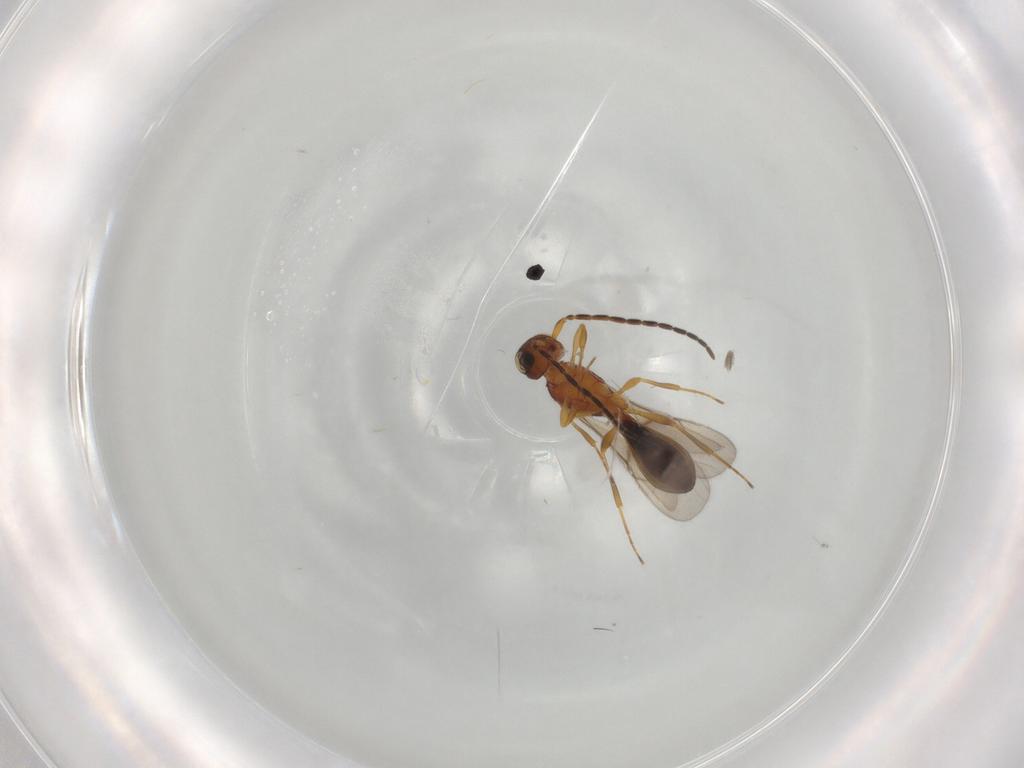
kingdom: Animalia
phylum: Arthropoda
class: Insecta
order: Hymenoptera
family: Scelionidae
